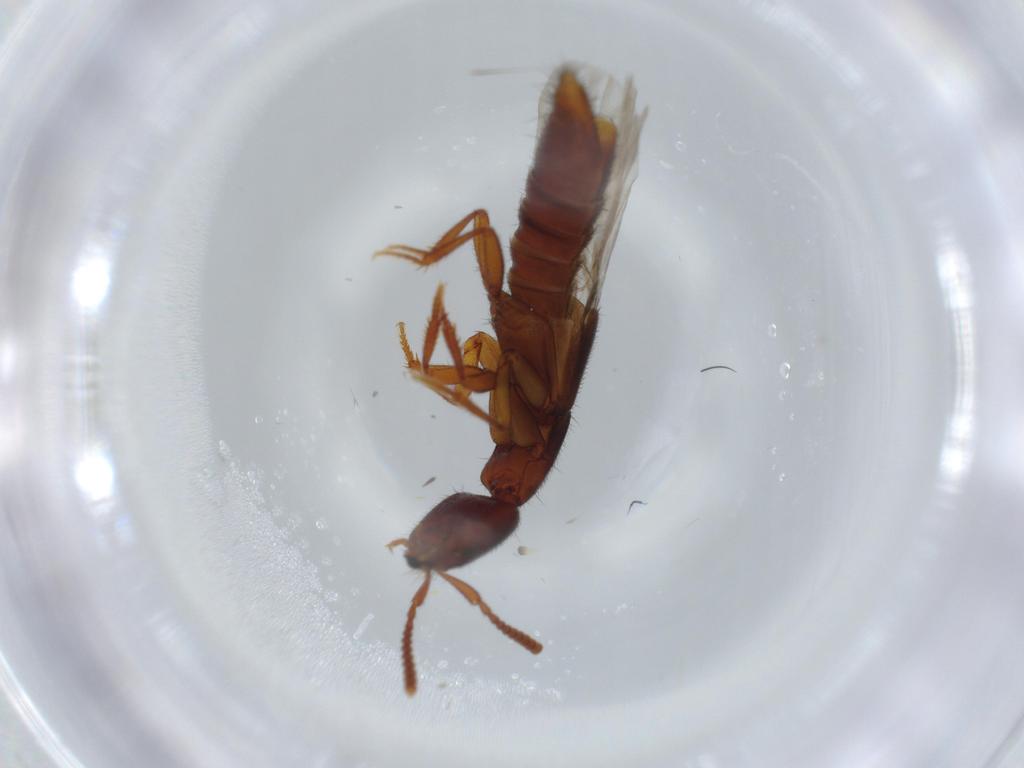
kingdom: Animalia
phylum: Arthropoda
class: Insecta
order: Coleoptera
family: Staphylinidae
